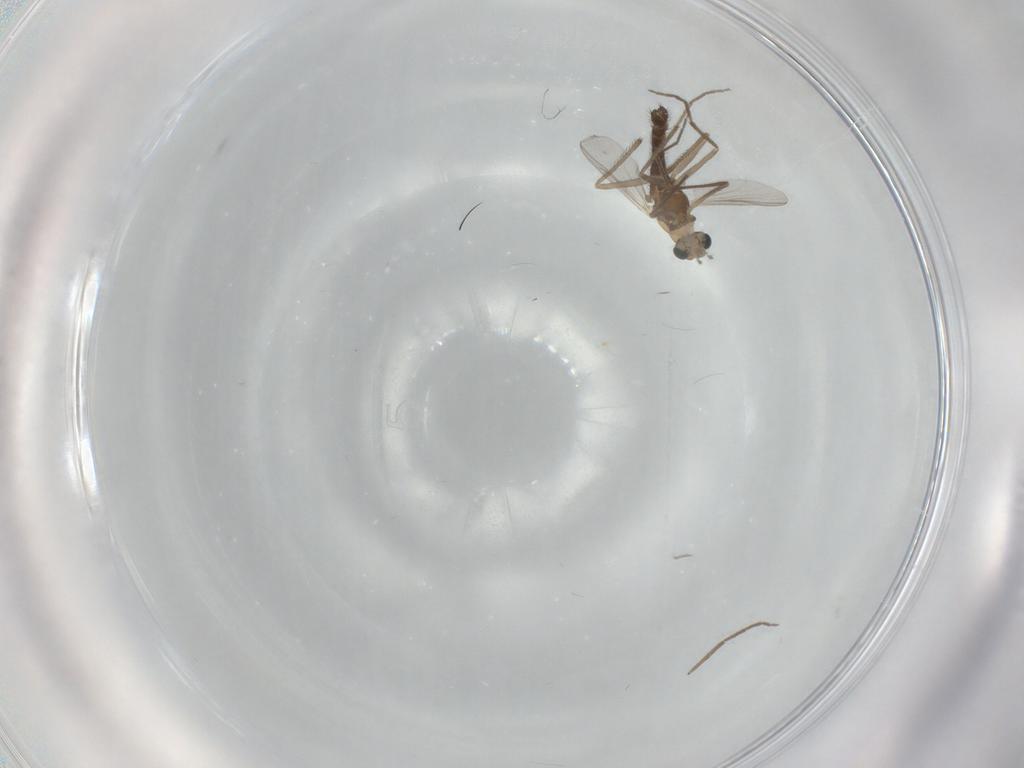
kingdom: Animalia
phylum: Arthropoda
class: Insecta
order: Diptera
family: Chironomidae
